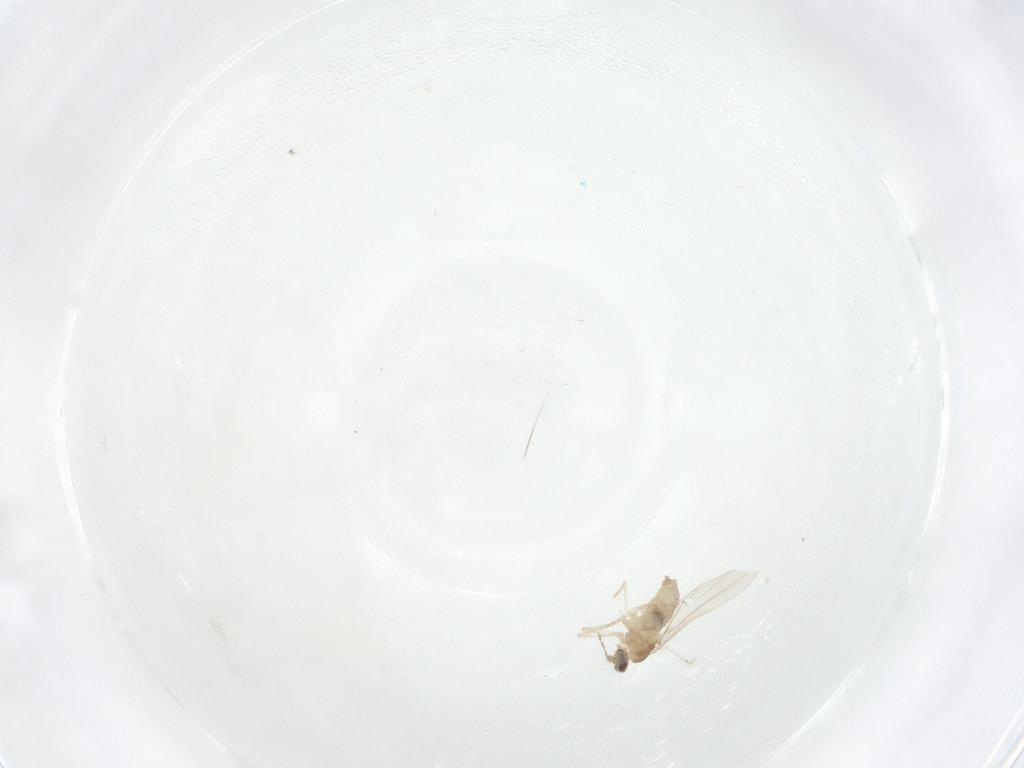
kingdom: Animalia
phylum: Arthropoda
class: Insecta
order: Diptera
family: Cecidomyiidae
